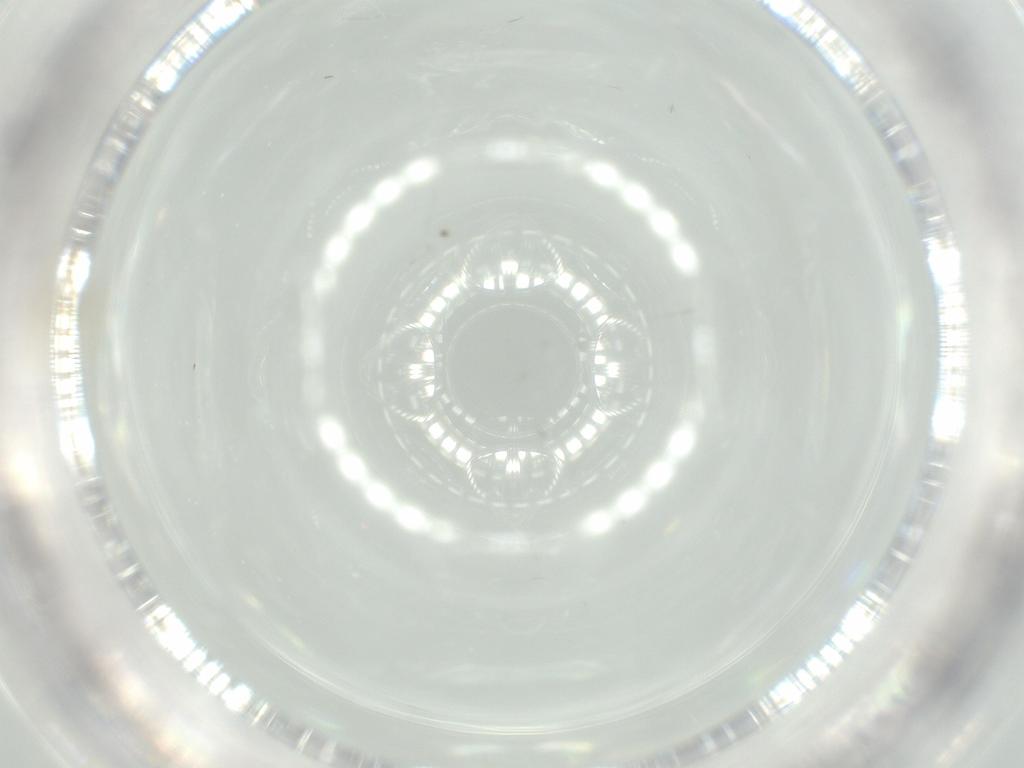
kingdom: Animalia
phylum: Arthropoda
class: Insecta
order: Diptera
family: Cecidomyiidae
